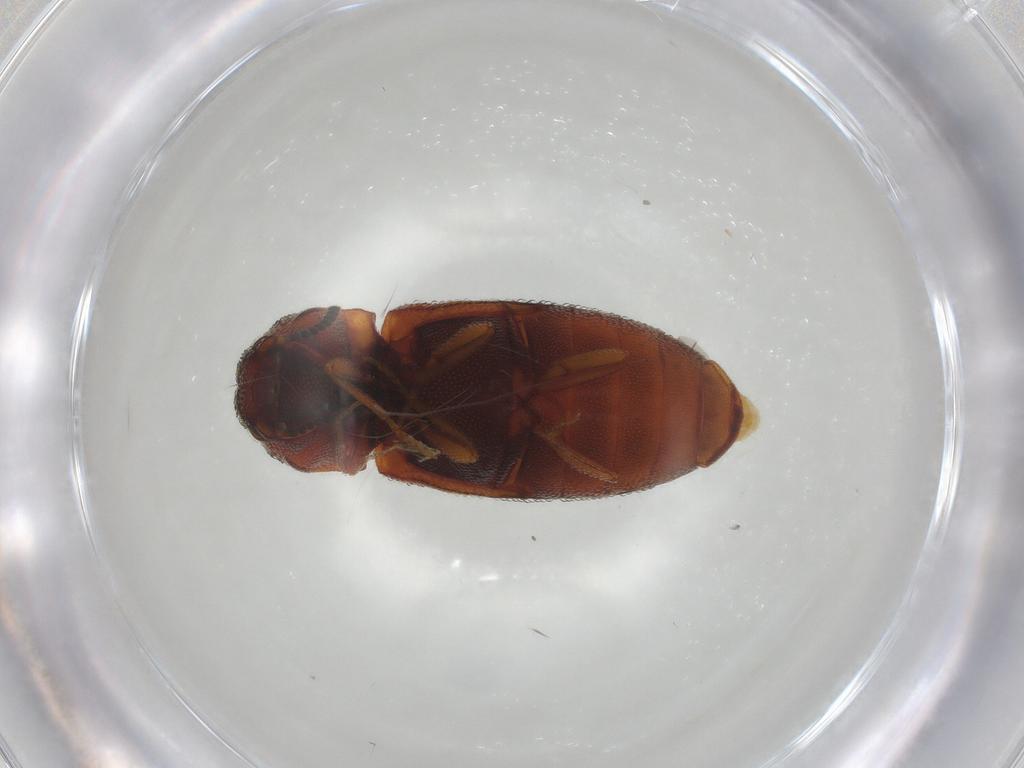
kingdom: Animalia
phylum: Arthropoda
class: Insecta
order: Coleoptera
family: Elateridae
